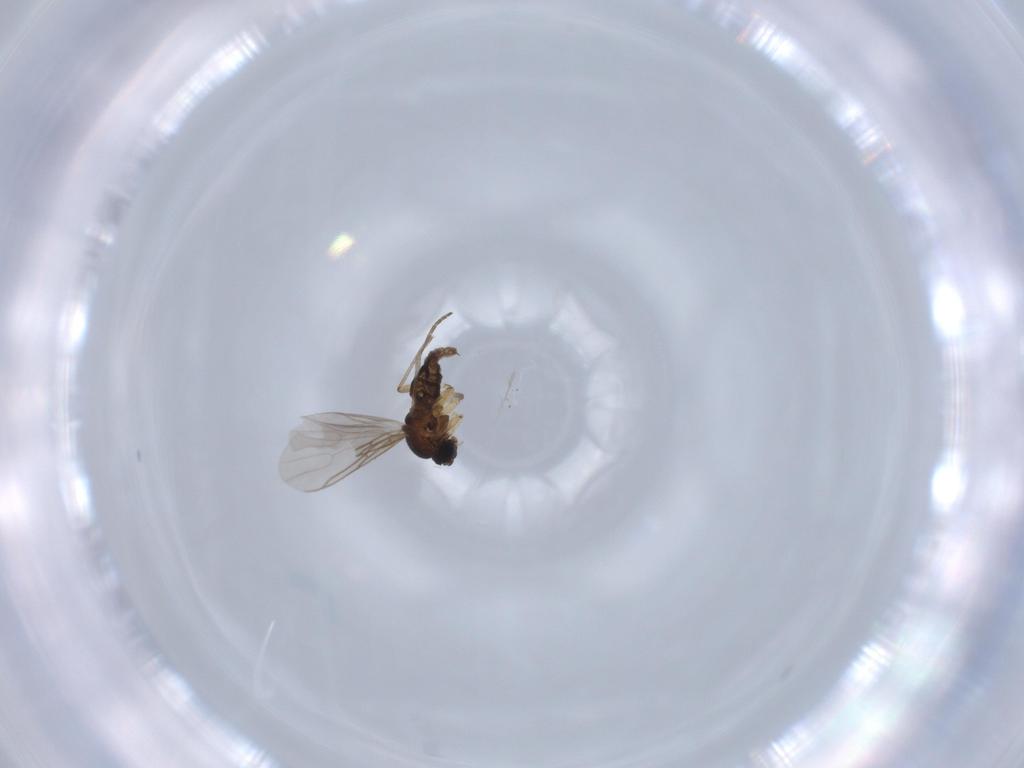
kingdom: Animalia
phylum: Arthropoda
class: Insecta
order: Diptera
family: Sciaridae
